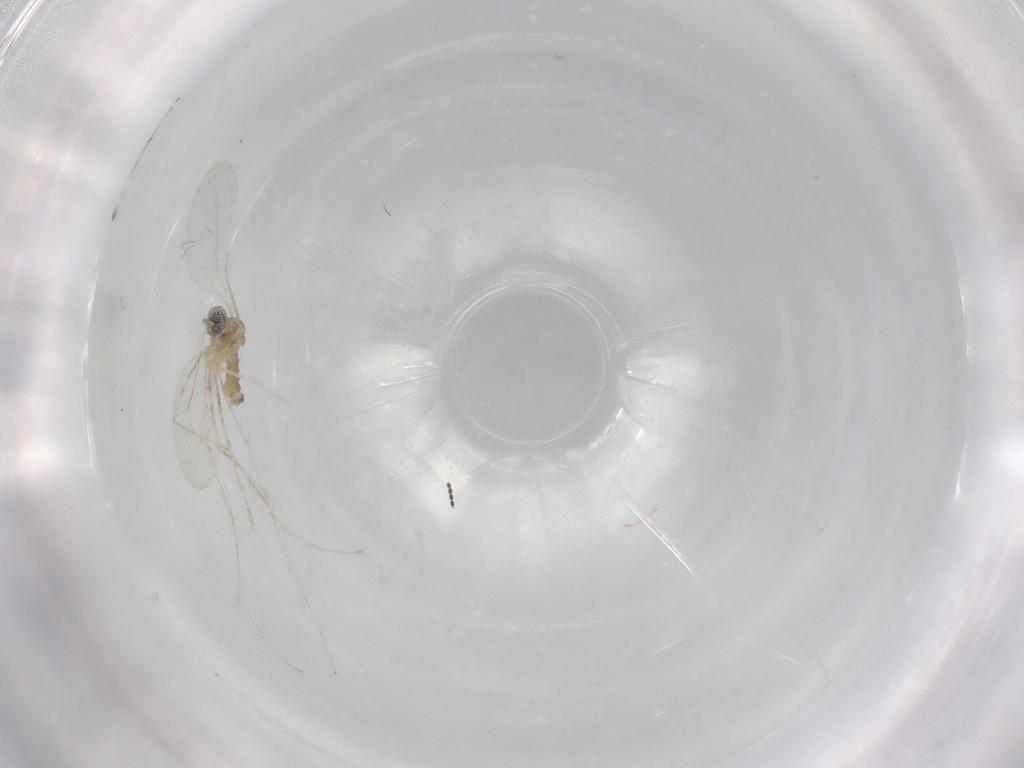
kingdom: Animalia
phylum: Arthropoda
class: Insecta
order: Diptera
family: Cecidomyiidae
